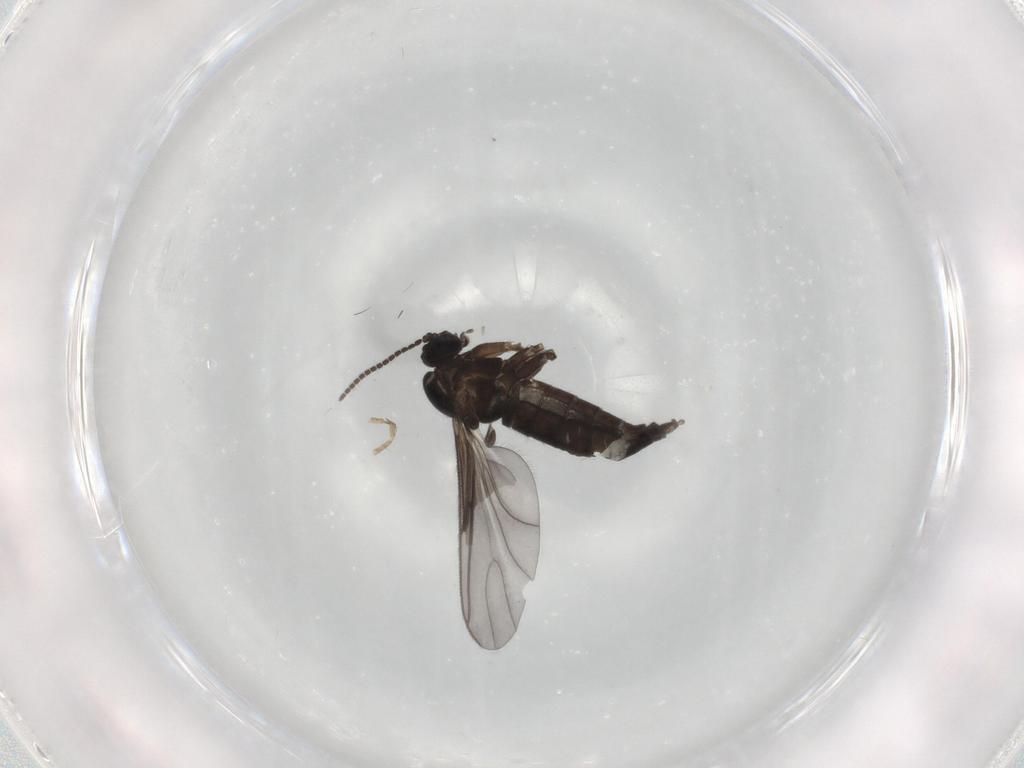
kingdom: Animalia
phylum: Arthropoda
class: Insecta
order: Diptera
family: Sciaridae
